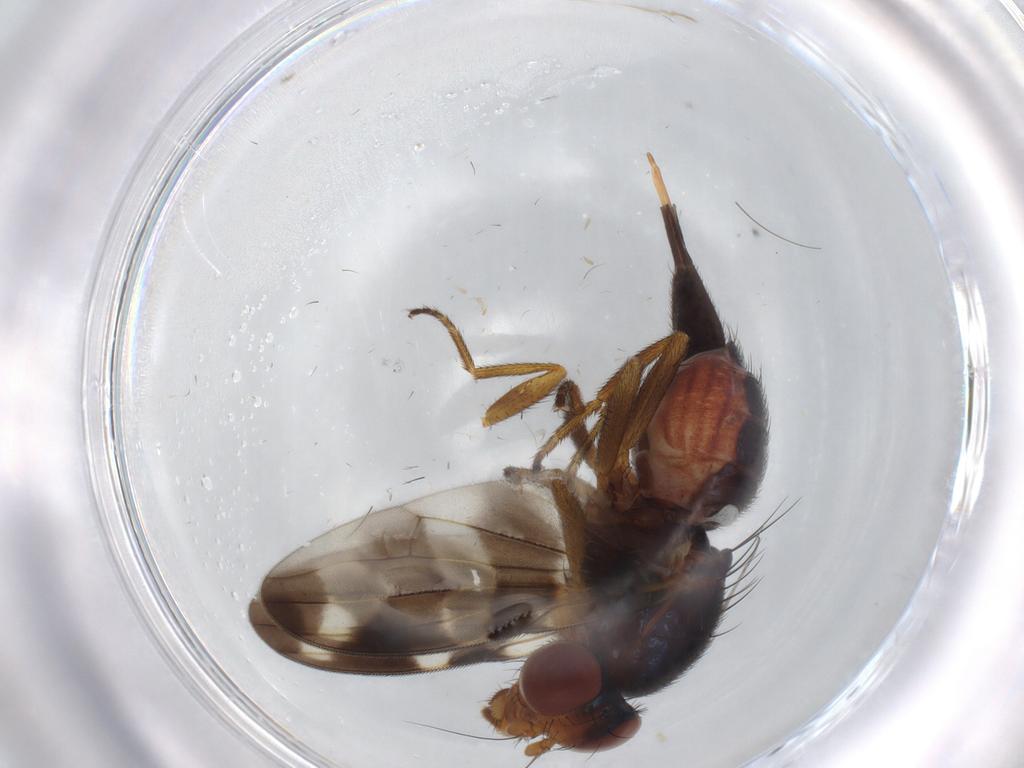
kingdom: Animalia
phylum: Arthropoda
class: Insecta
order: Diptera
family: Ulidiidae
